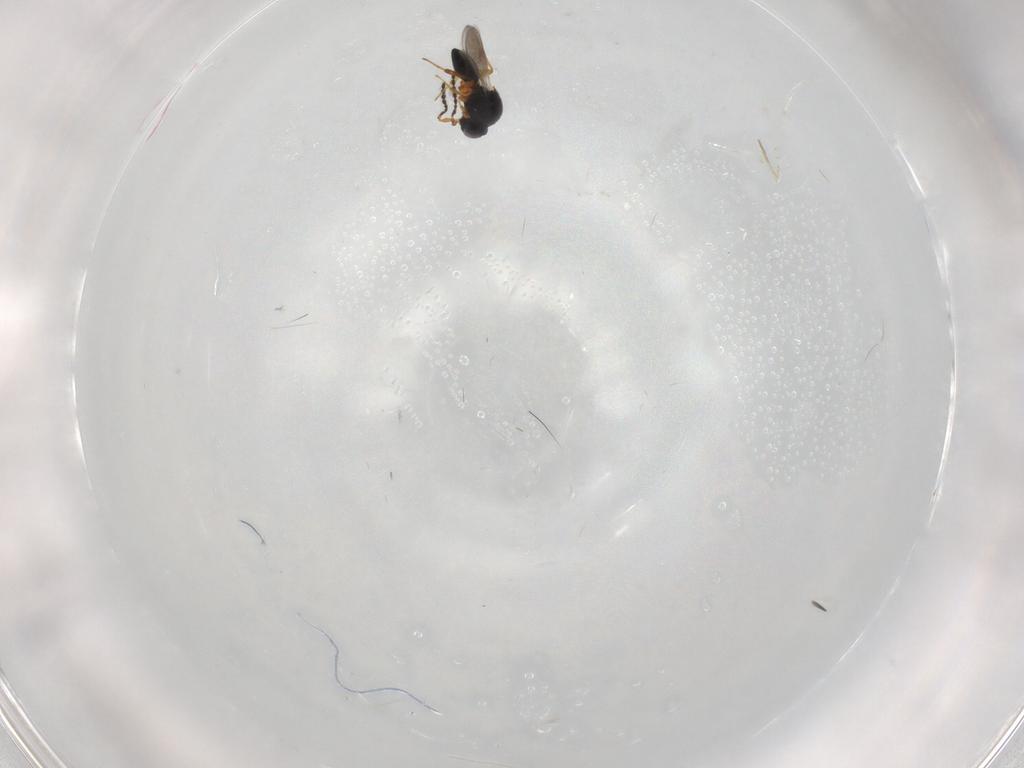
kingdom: Animalia
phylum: Arthropoda
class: Insecta
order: Hymenoptera
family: Platygastridae
